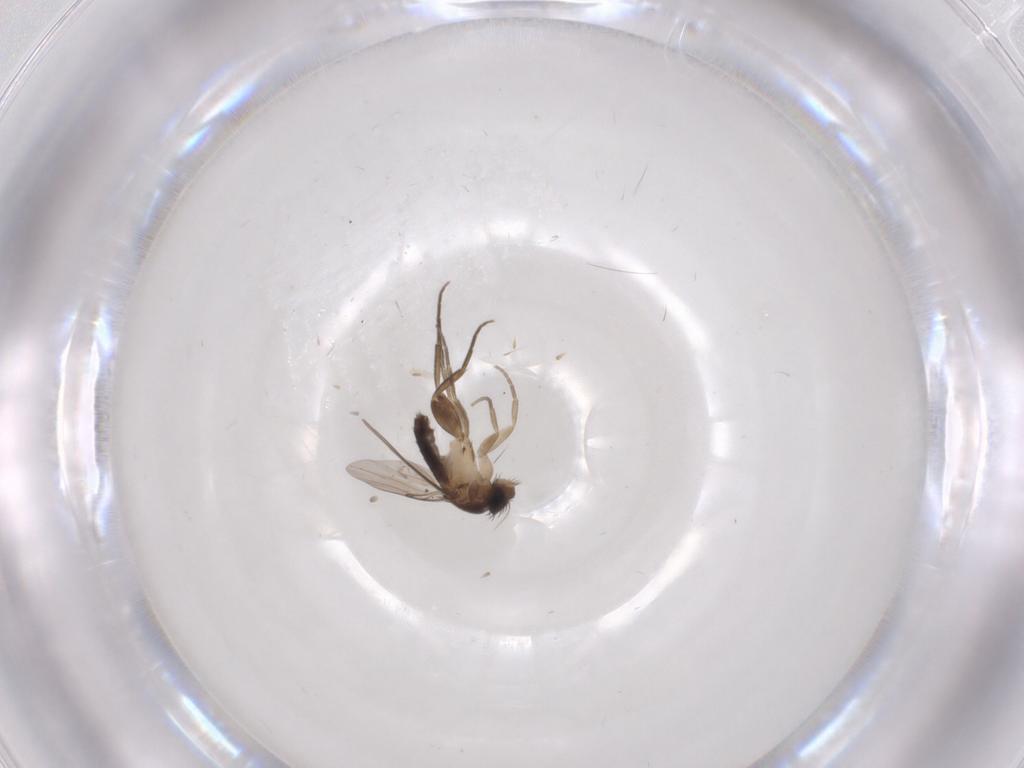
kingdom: Animalia
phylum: Arthropoda
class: Insecta
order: Diptera
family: Phoridae
